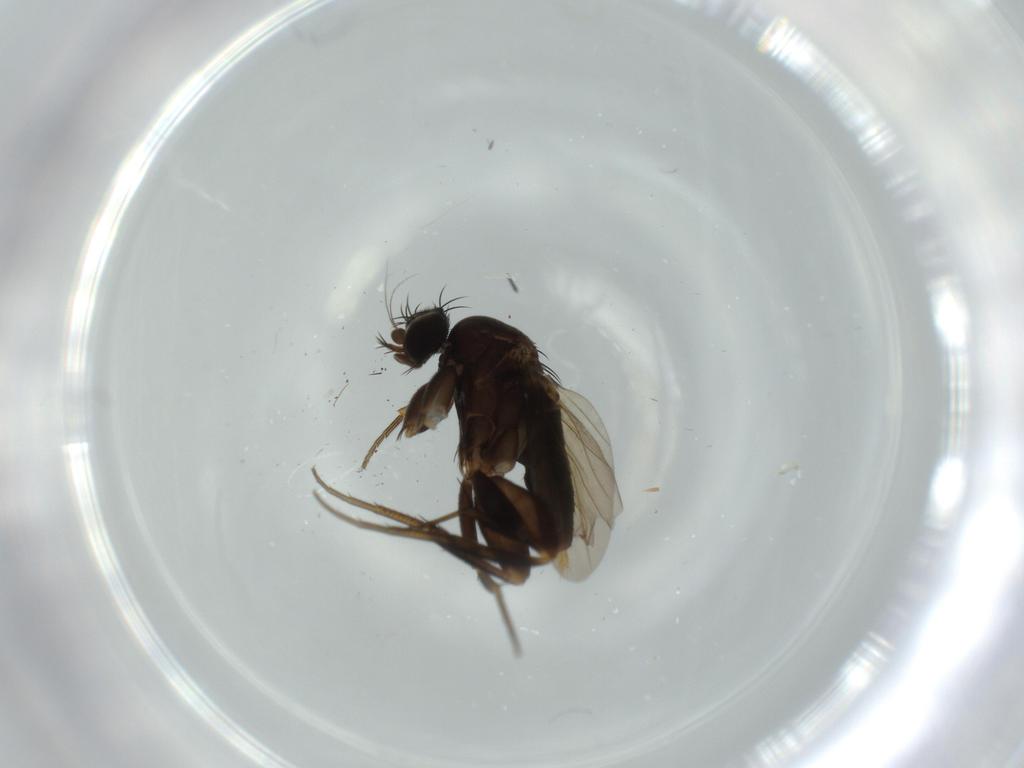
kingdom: Animalia
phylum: Arthropoda
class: Insecta
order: Diptera
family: Sciaridae
